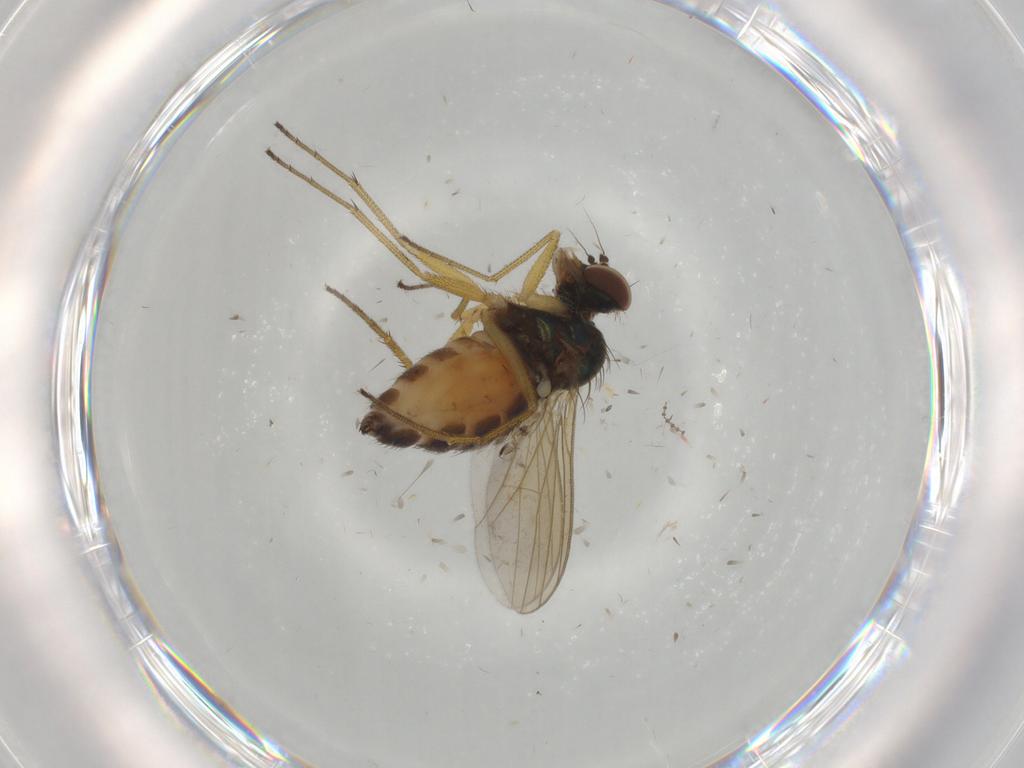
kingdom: Animalia
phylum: Arthropoda
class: Insecta
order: Diptera
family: Dolichopodidae
